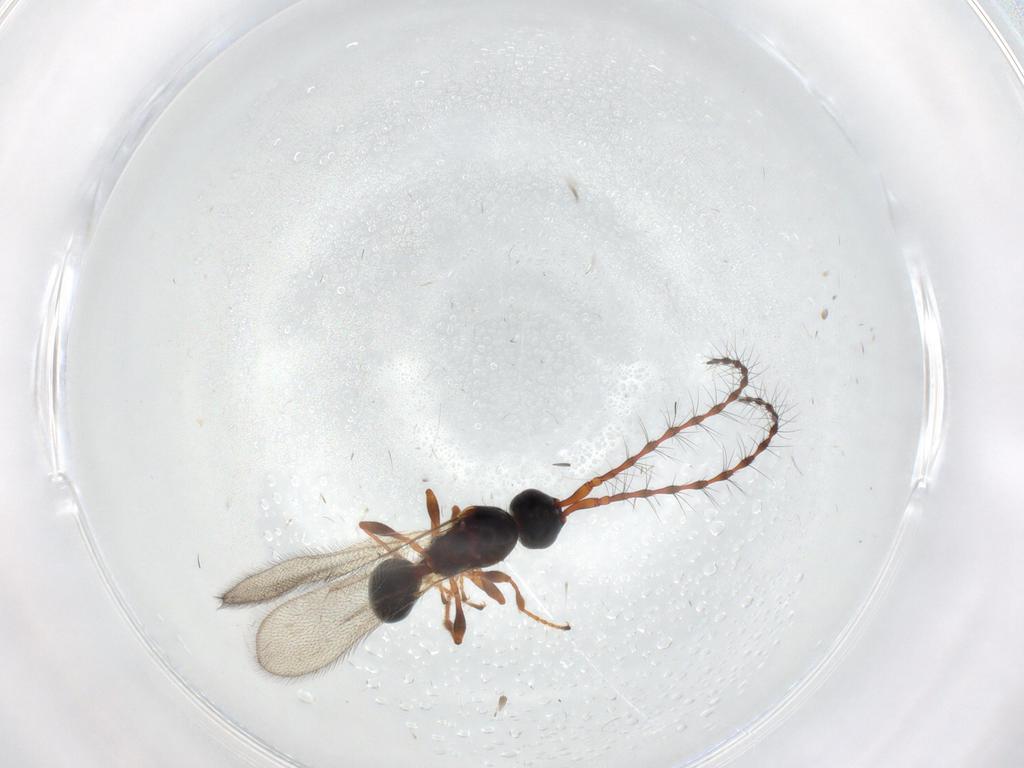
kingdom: Animalia
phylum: Arthropoda
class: Insecta
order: Hymenoptera
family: Diapriidae
